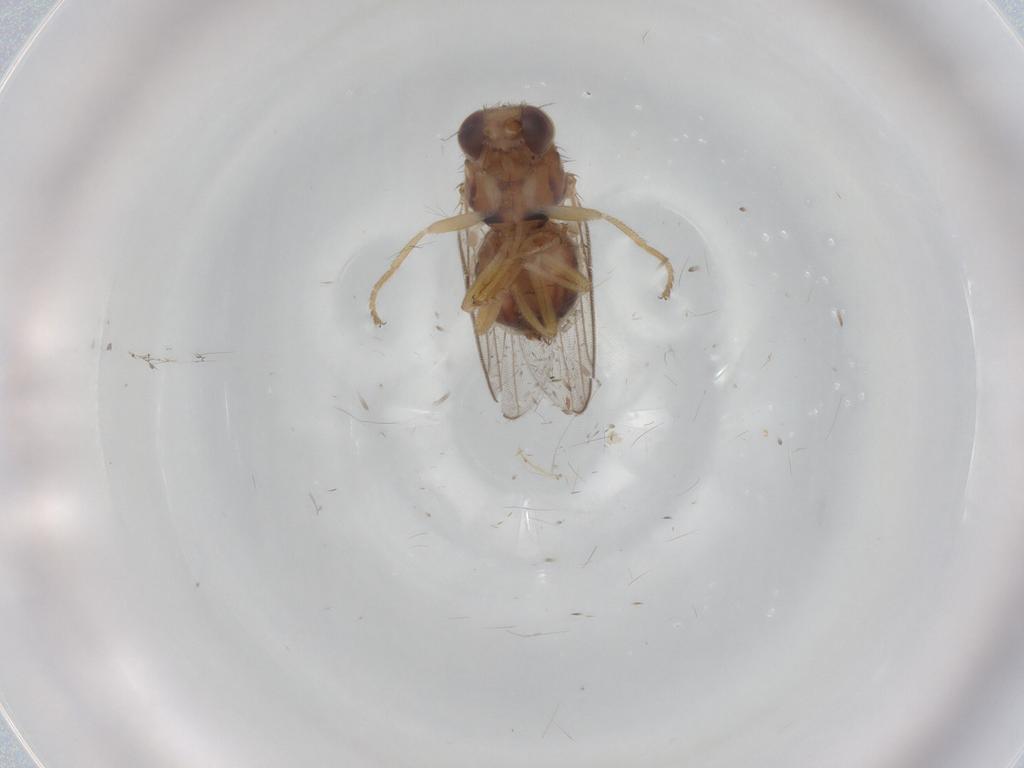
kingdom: Animalia
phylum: Arthropoda
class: Insecta
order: Diptera
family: Chloropidae
